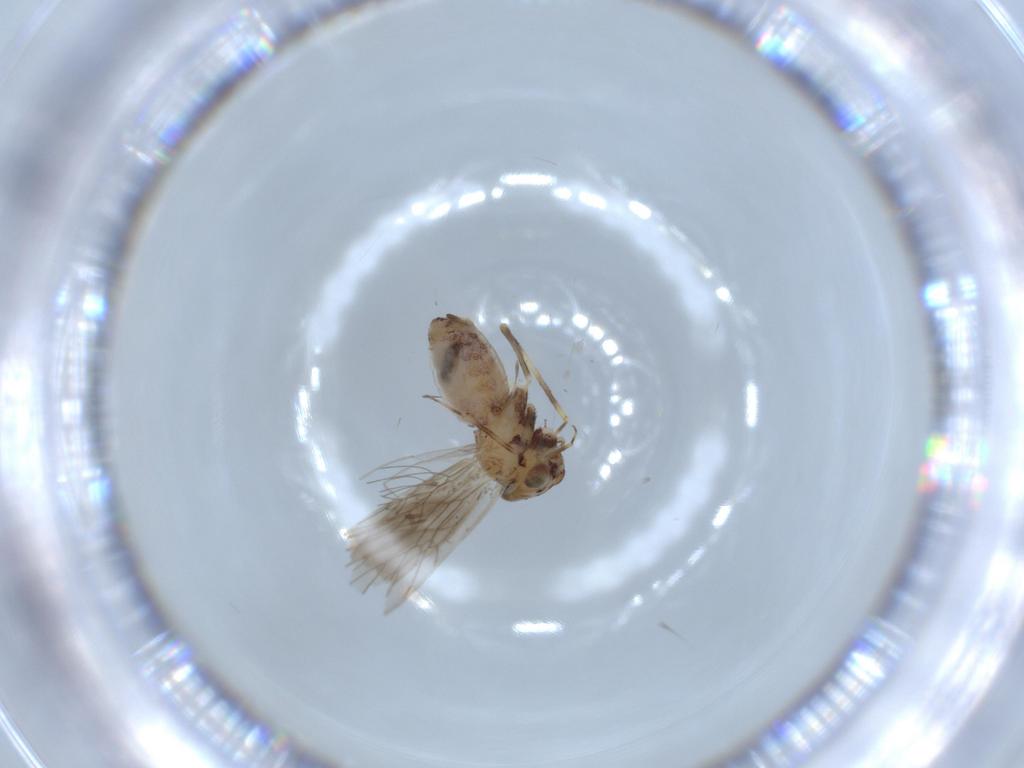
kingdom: Animalia
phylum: Arthropoda
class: Insecta
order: Psocodea
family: Lepidopsocidae
